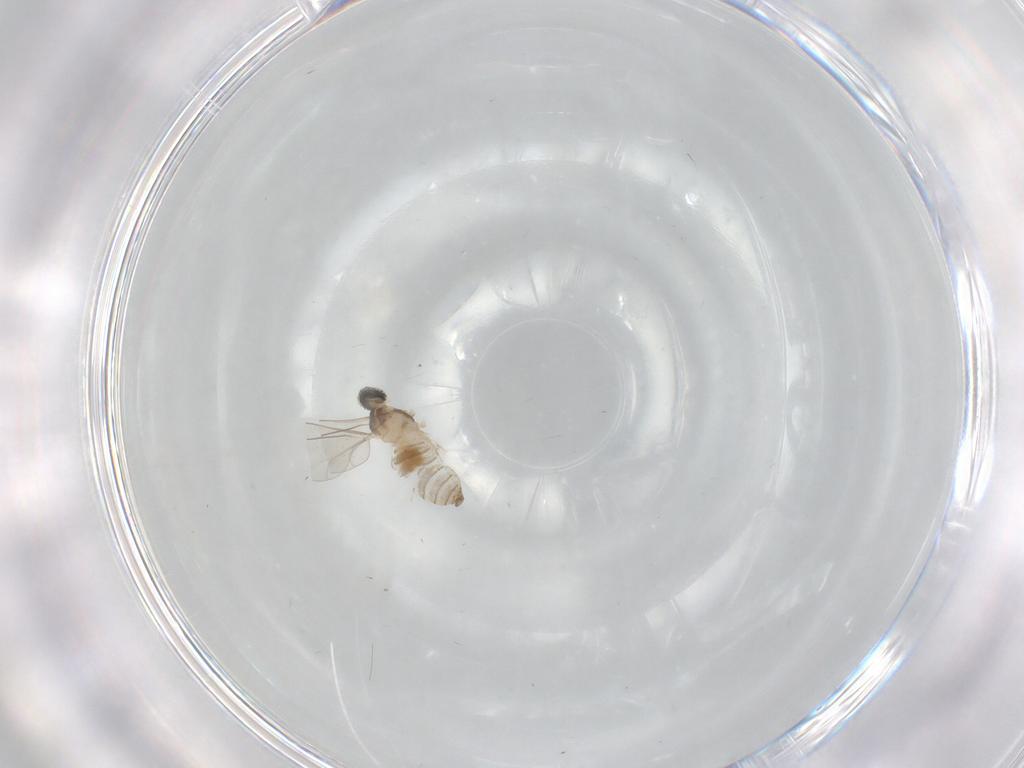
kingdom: Animalia
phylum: Arthropoda
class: Insecta
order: Diptera
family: Cecidomyiidae
